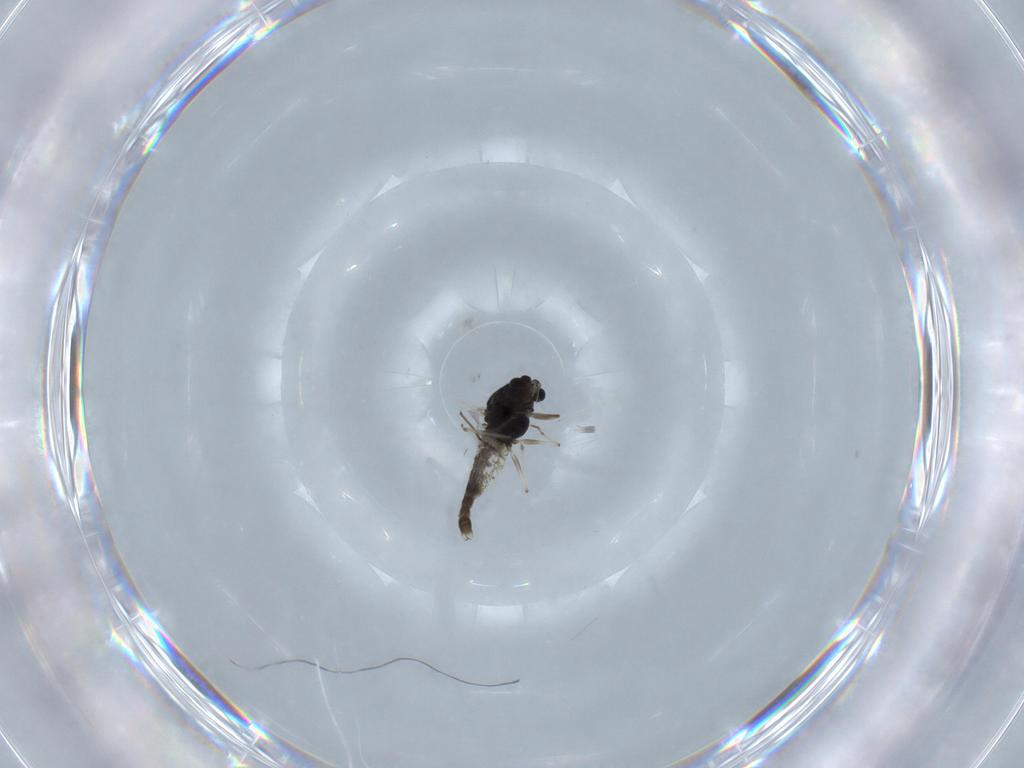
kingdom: Animalia
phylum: Arthropoda
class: Insecta
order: Diptera
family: Chironomidae
